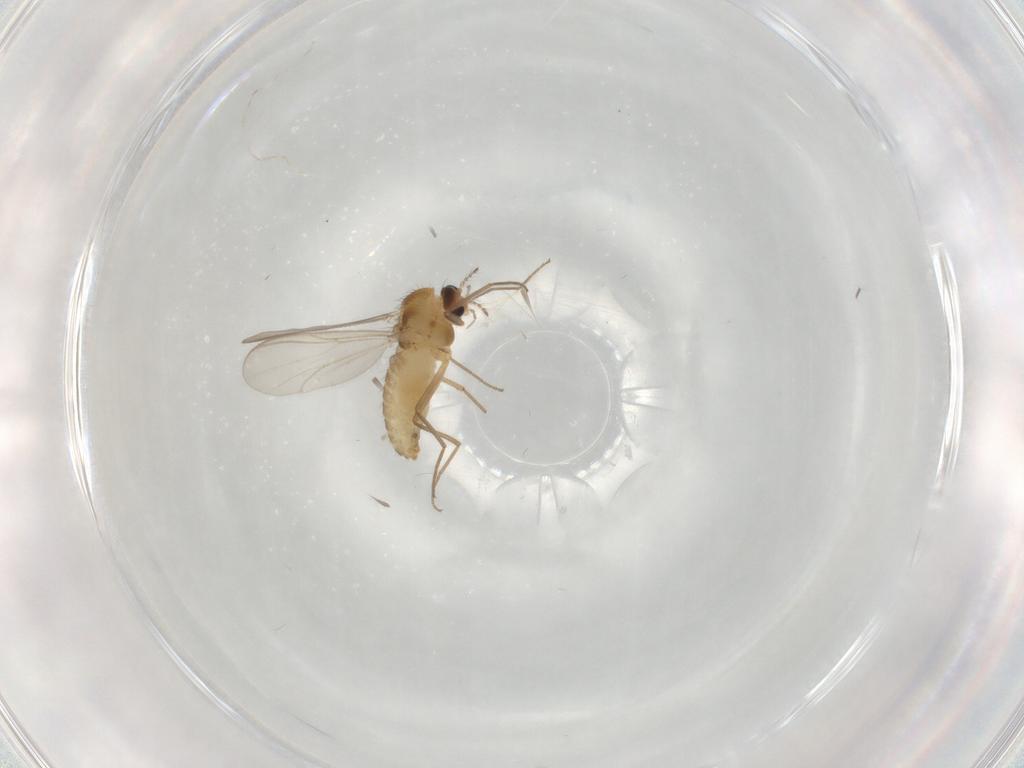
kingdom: Animalia
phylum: Arthropoda
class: Insecta
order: Diptera
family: Chironomidae
